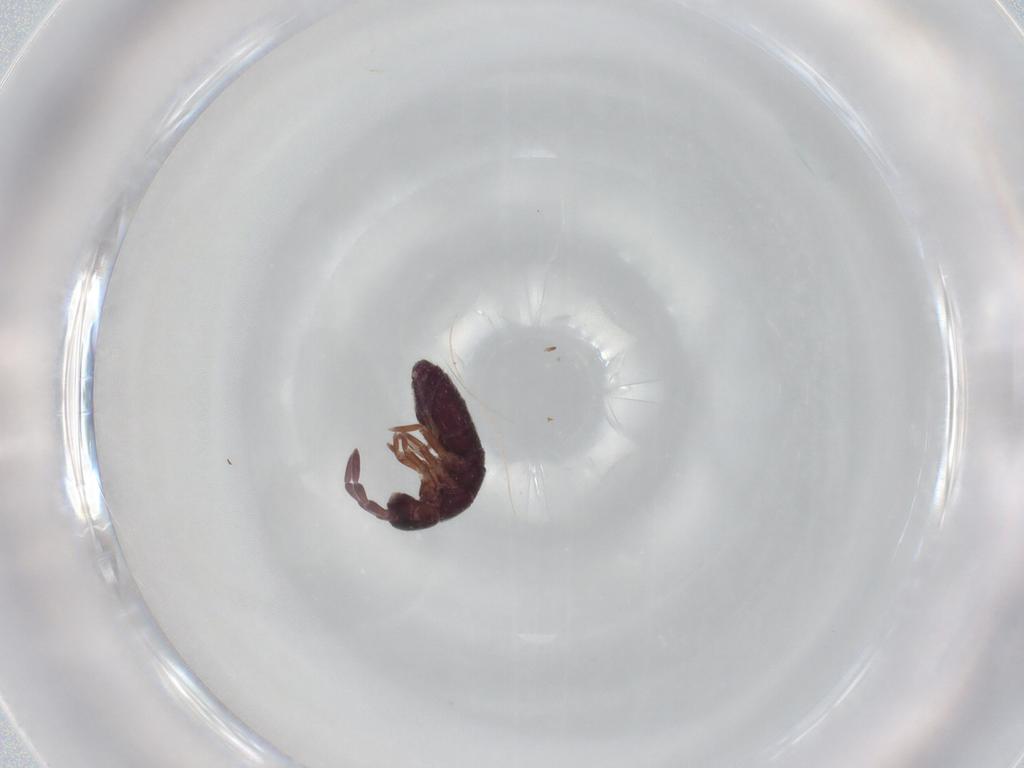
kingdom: Animalia
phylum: Arthropoda
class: Collembola
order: Entomobryomorpha
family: Isotomidae
